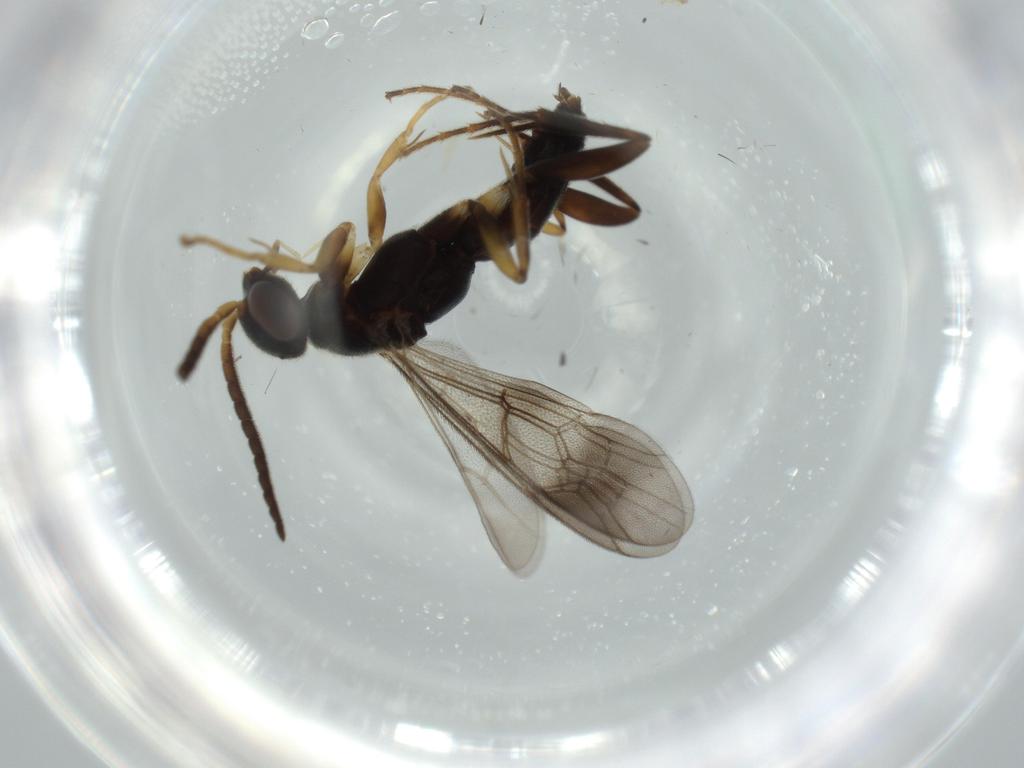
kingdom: Animalia
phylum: Arthropoda
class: Insecta
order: Hymenoptera
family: Pompilidae
